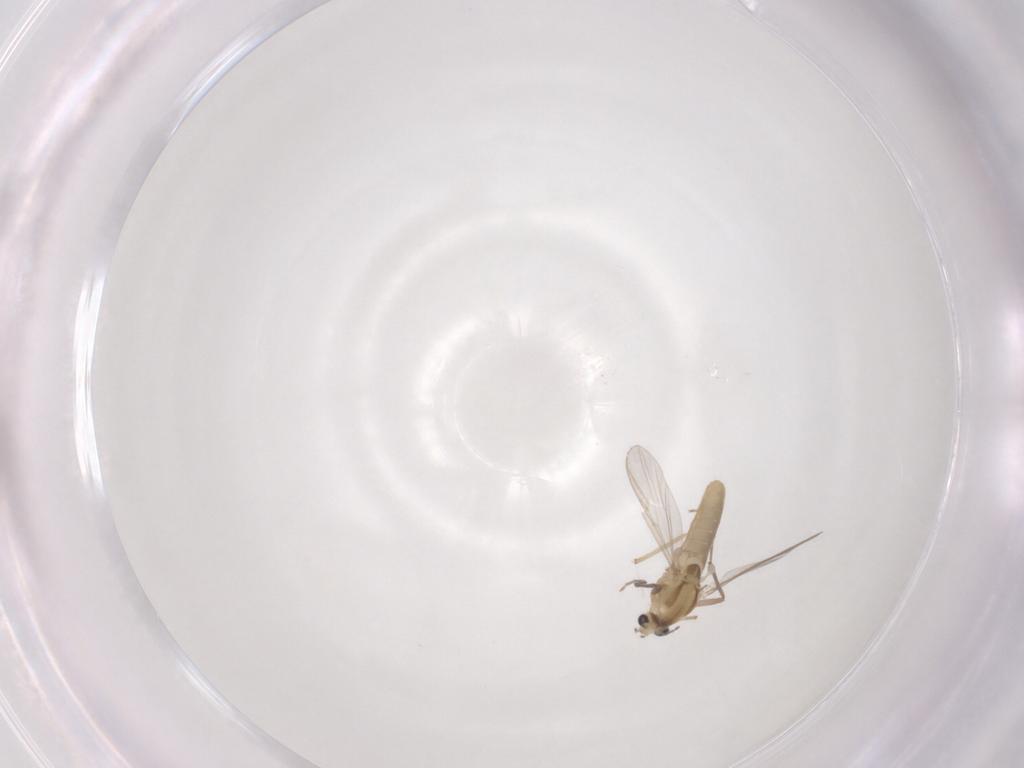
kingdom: Animalia
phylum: Arthropoda
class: Insecta
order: Diptera
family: Chironomidae
